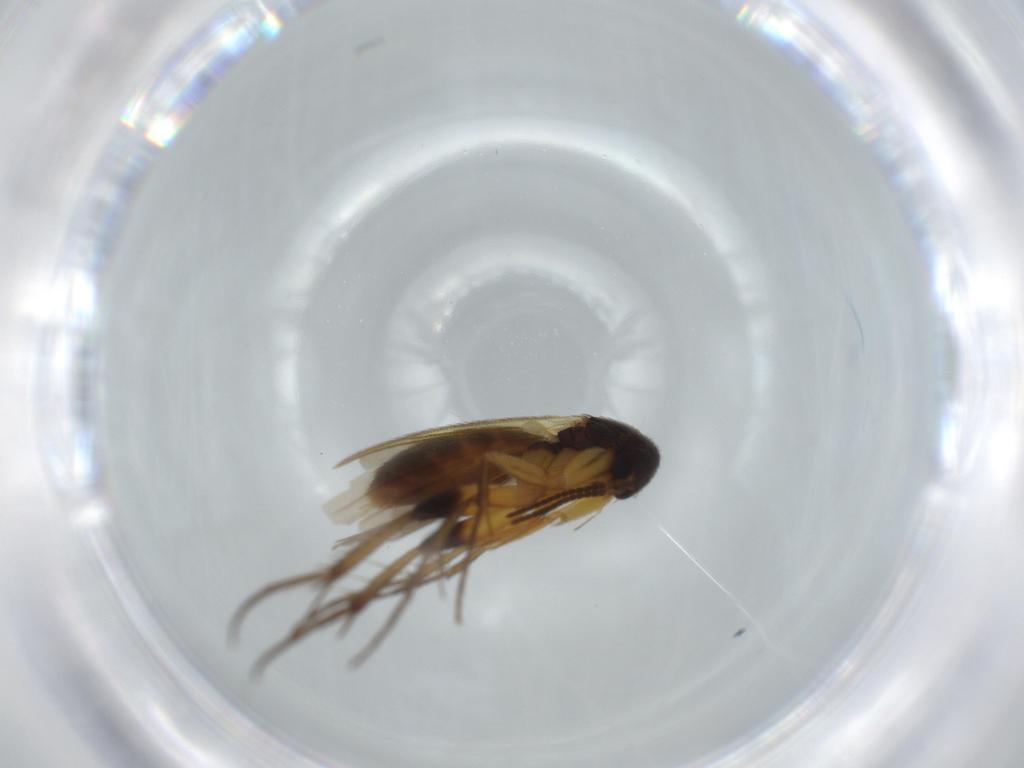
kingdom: Animalia
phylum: Arthropoda
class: Insecta
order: Diptera
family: Mycetophilidae
